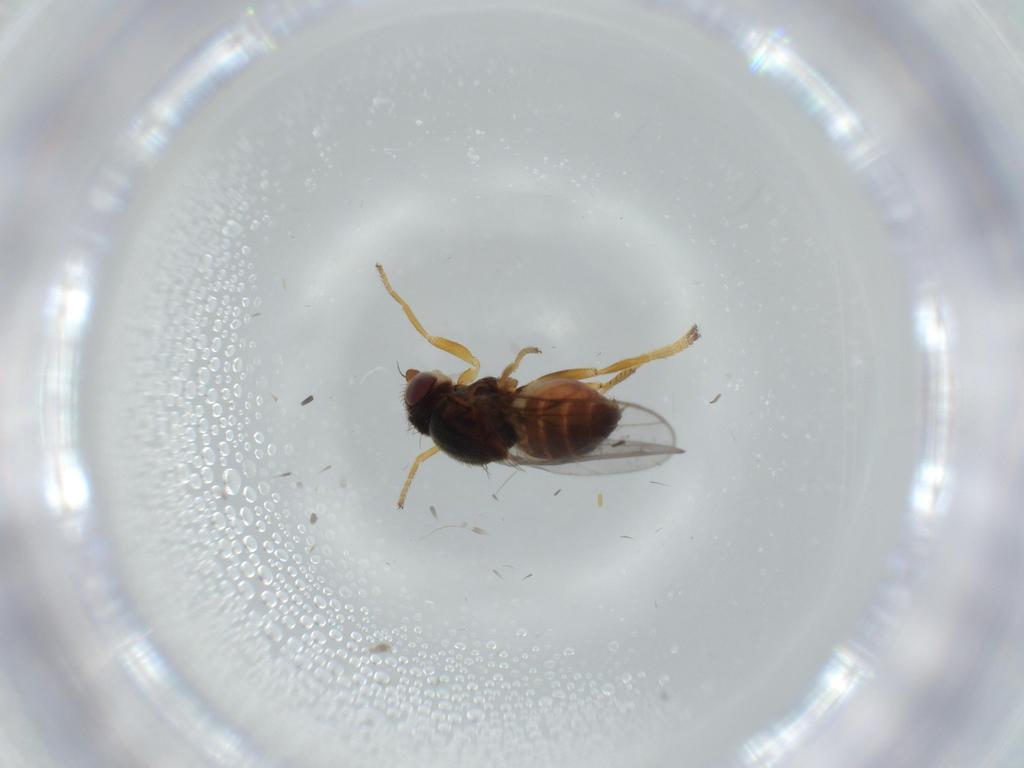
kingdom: Animalia
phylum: Arthropoda
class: Insecta
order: Diptera
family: Chloropidae
